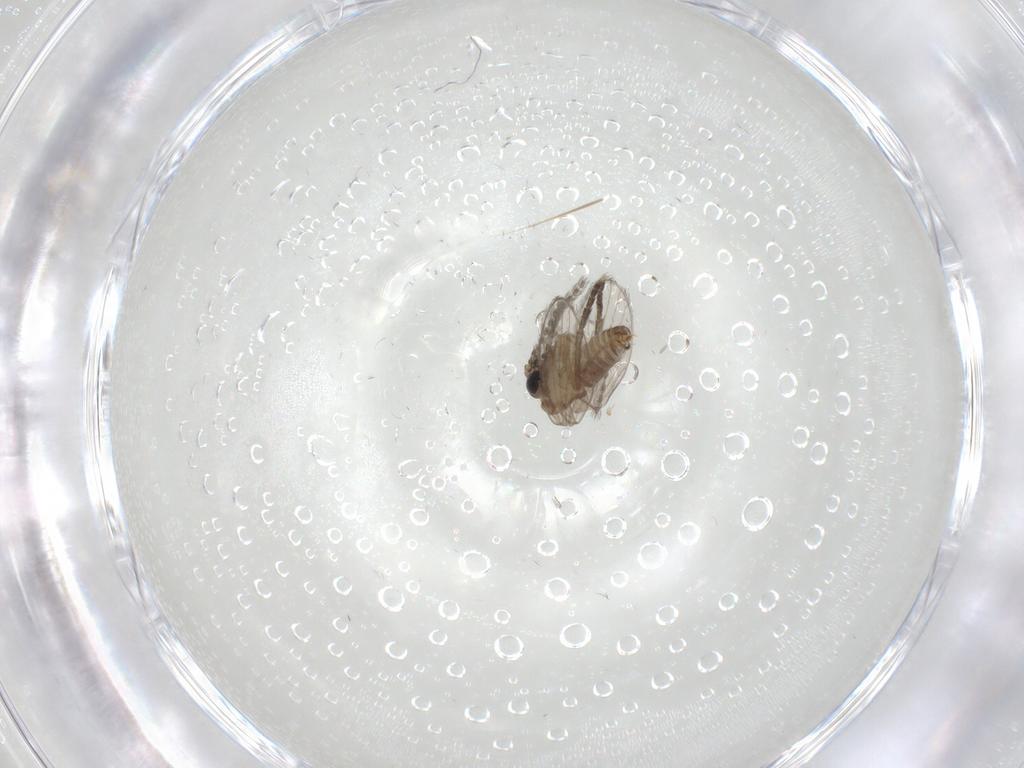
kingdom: Animalia
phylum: Arthropoda
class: Insecta
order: Diptera
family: Psychodidae
